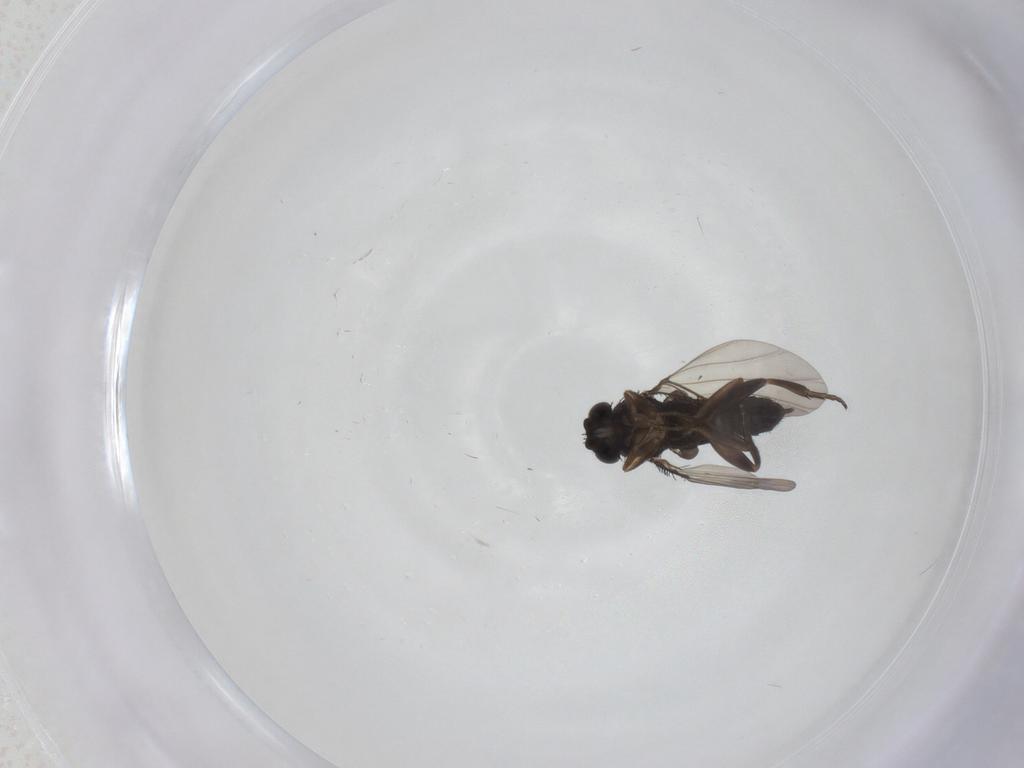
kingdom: Animalia
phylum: Arthropoda
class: Insecta
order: Diptera
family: Phoridae
